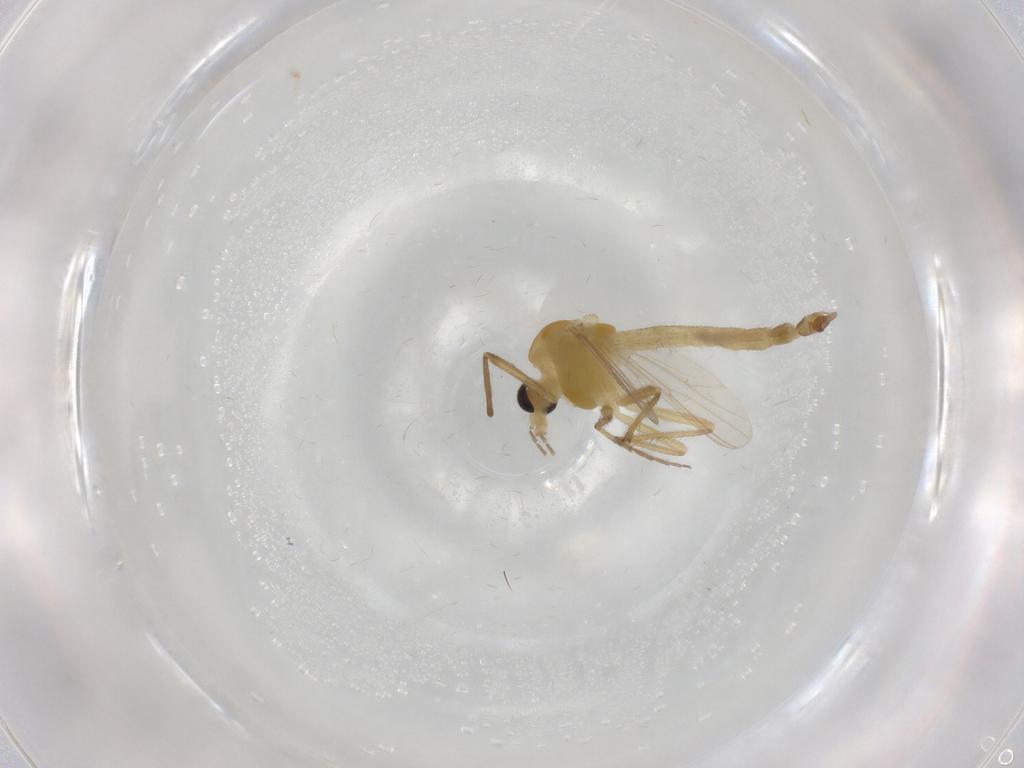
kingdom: Animalia
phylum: Arthropoda
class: Insecta
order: Diptera
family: Chironomidae
